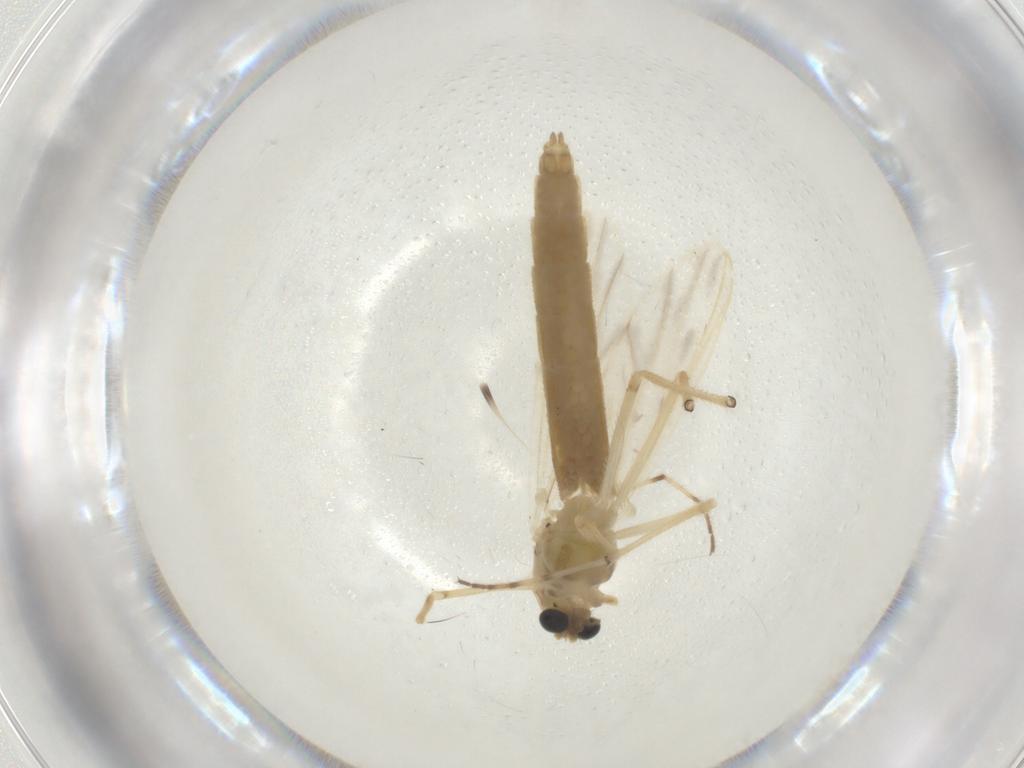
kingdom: Animalia
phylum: Arthropoda
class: Insecta
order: Diptera
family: Chironomidae
